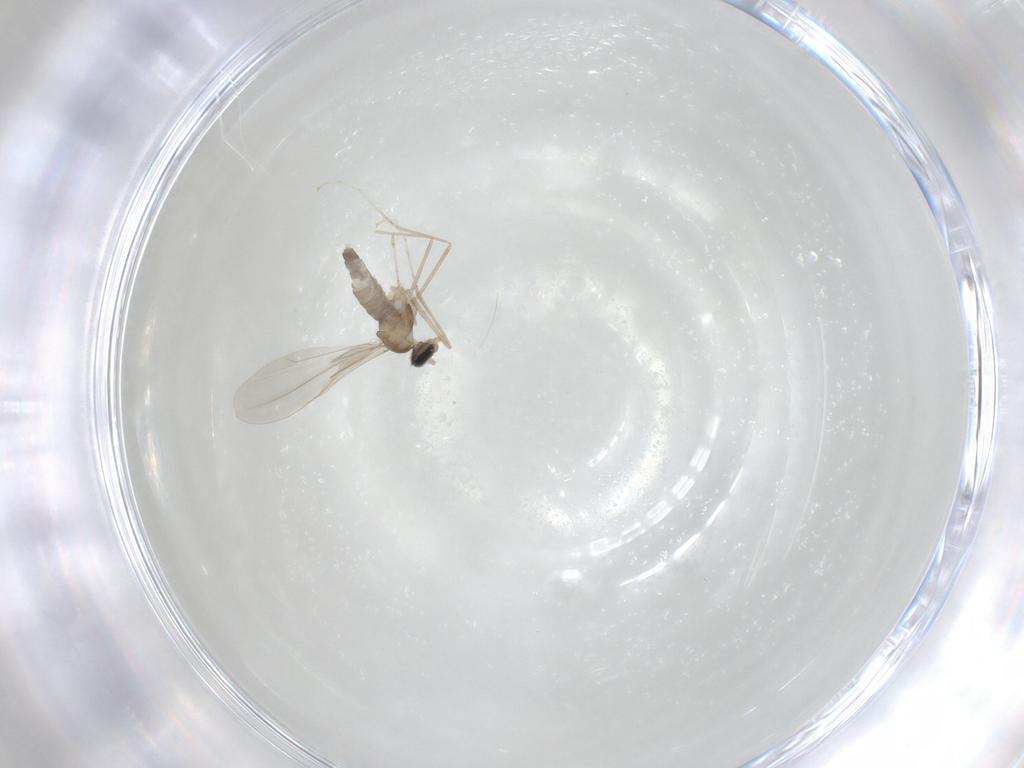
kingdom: Animalia
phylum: Arthropoda
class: Insecta
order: Diptera
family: Cecidomyiidae
